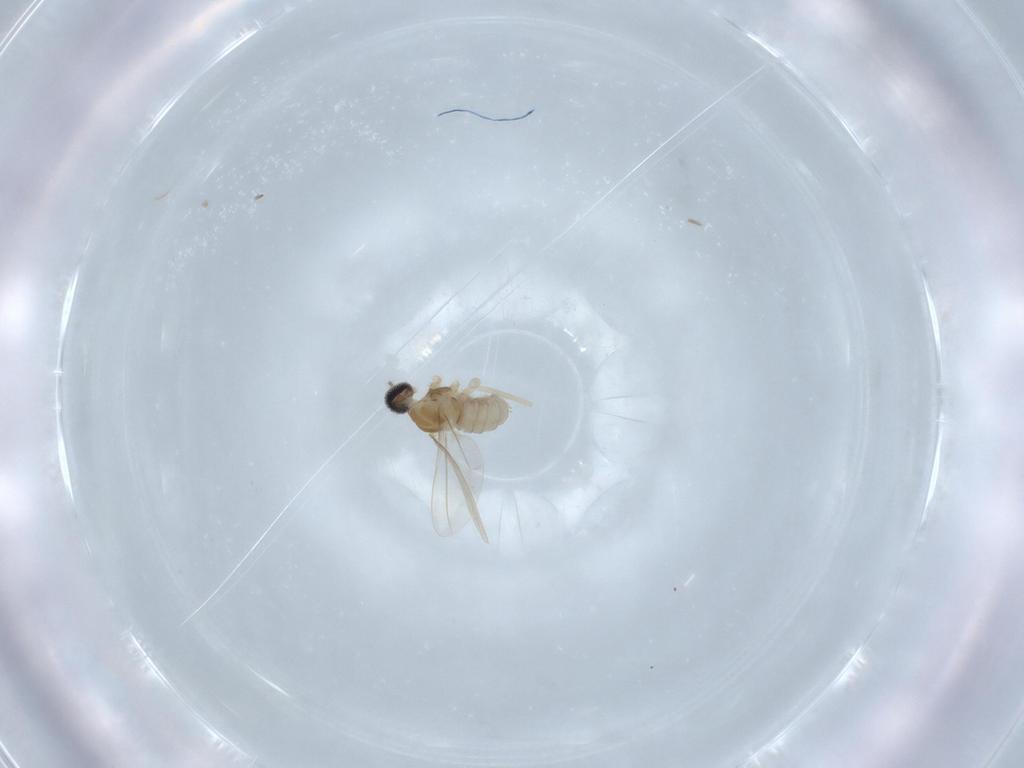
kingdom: Animalia
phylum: Arthropoda
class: Insecta
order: Diptera
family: Cecidomyiidae
